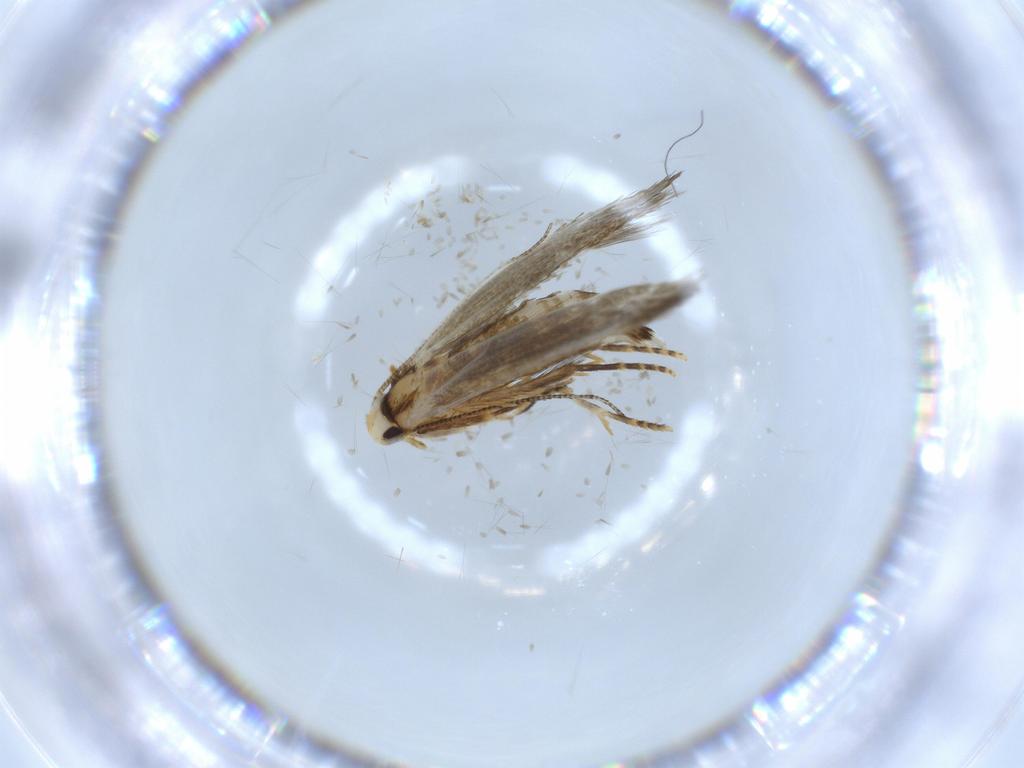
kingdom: Animalia
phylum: Arthropoda
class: Insecta
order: Lepidoptera
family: Tineidae
